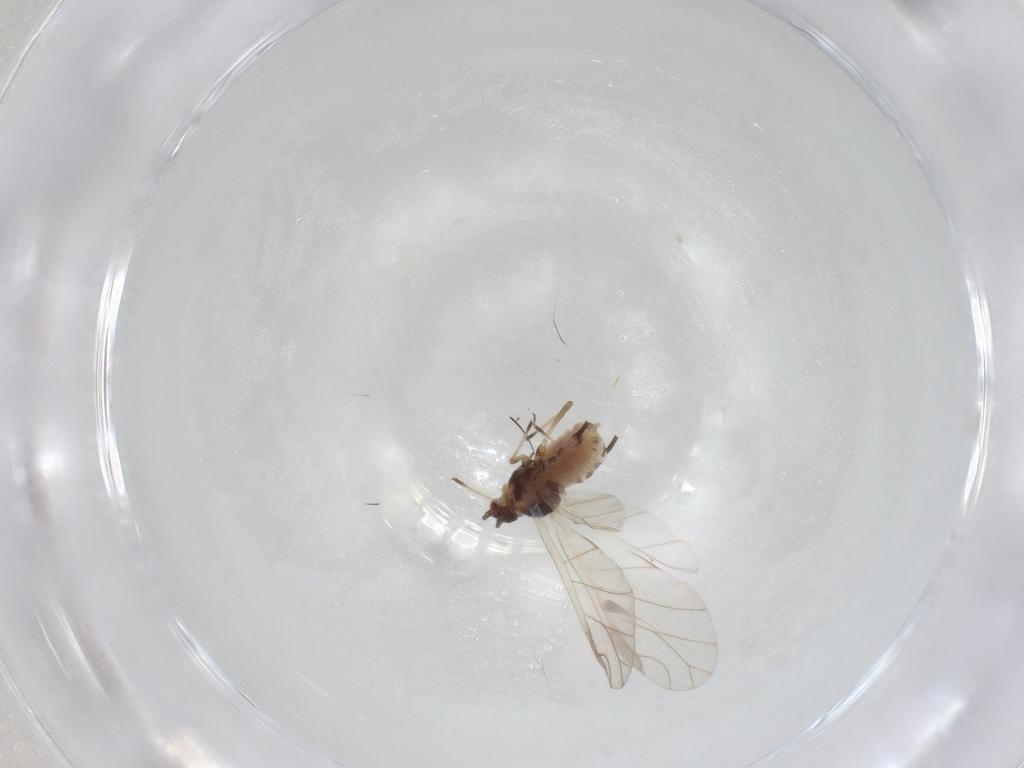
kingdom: Animalia
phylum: Arthropoda
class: Insecta
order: Hemiptera
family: Aphididae
